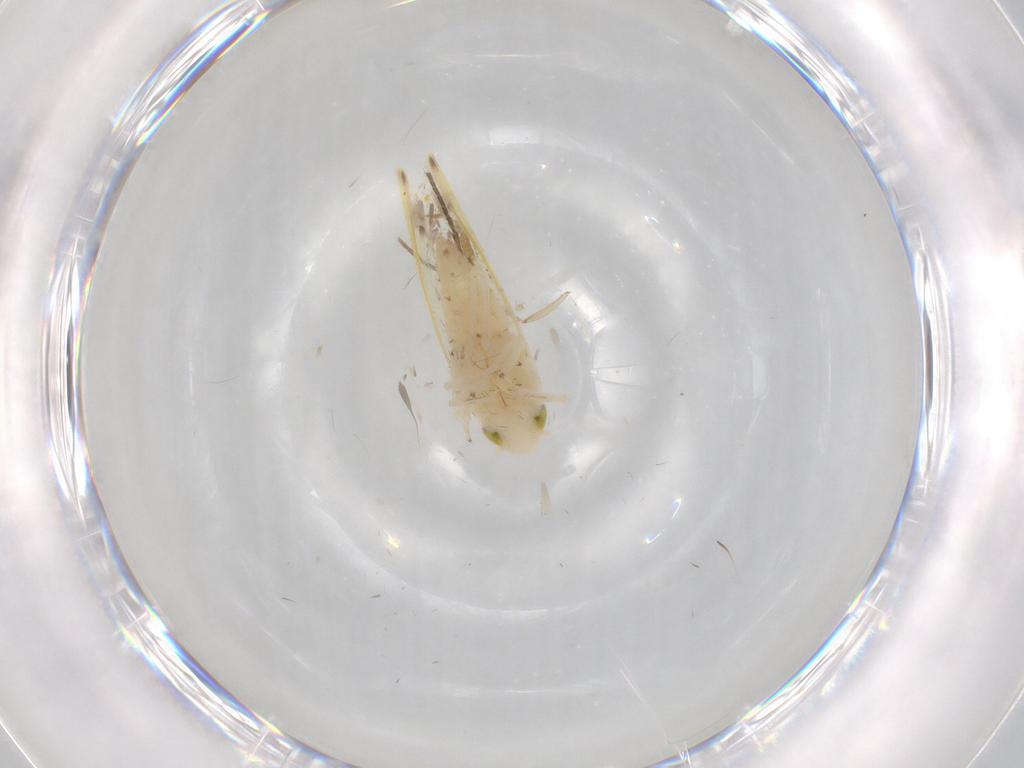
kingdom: Animalia
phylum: Arthropoda
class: Insecta
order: Hemiptera
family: Cicadellidae
